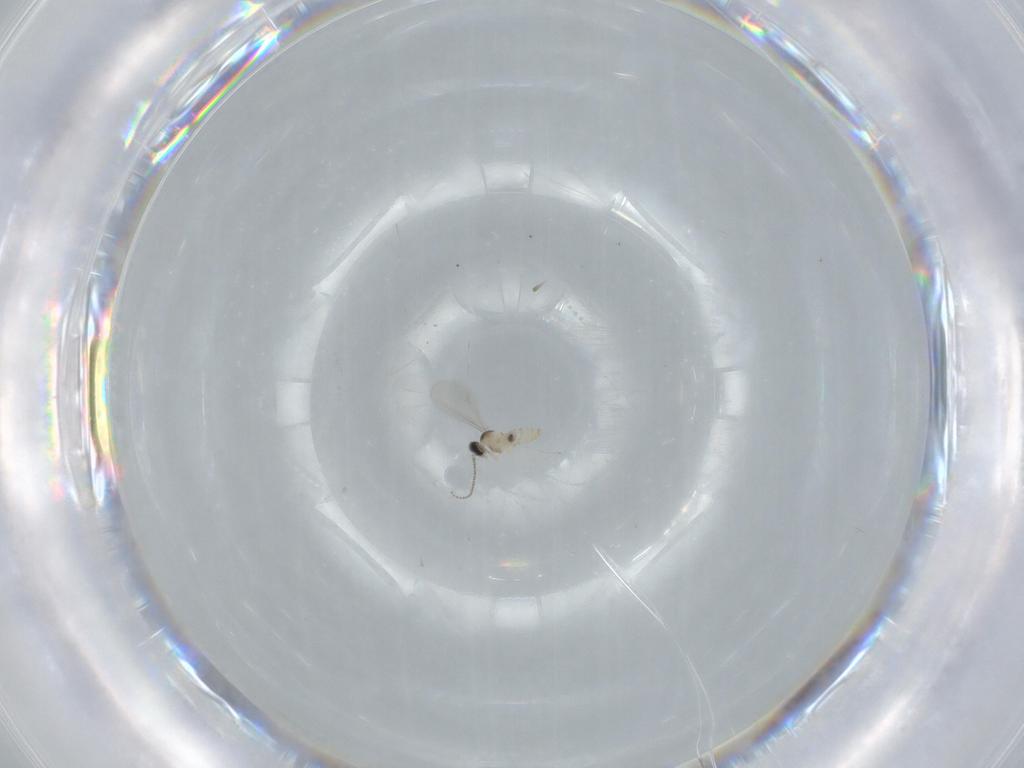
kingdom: Animalia
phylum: Arthropoda
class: Insecta
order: Diptera
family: Cecidomyiidae
